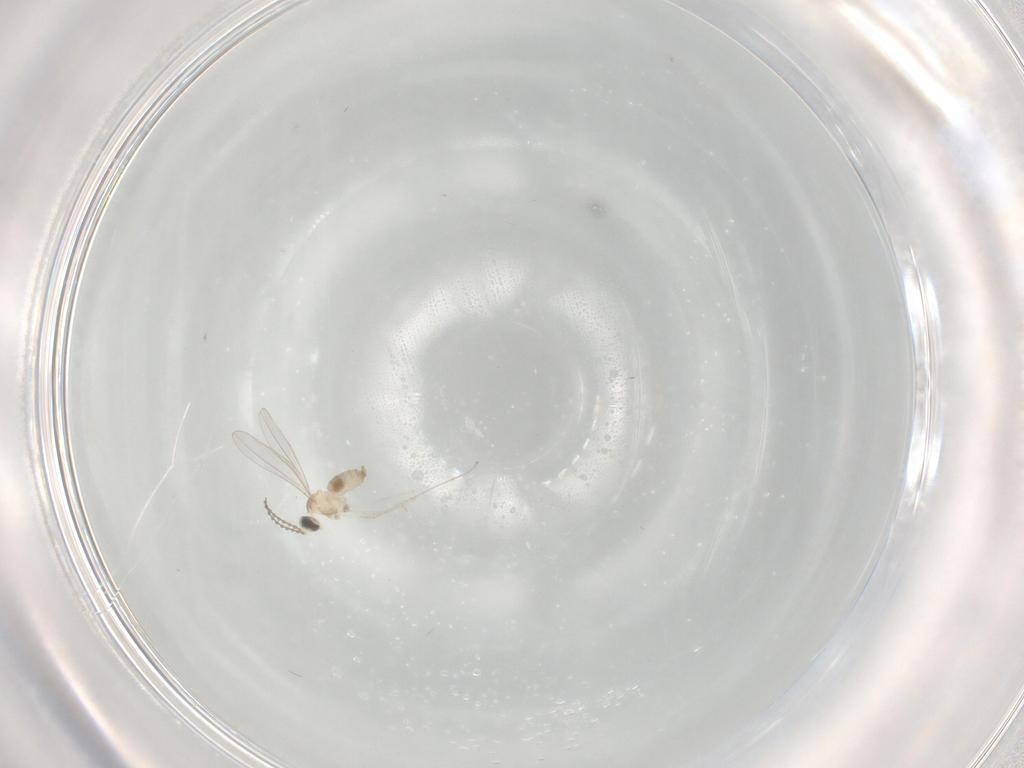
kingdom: Animalia
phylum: Arthropoda
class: Insecta
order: Diptera
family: Cecidomyiidae
